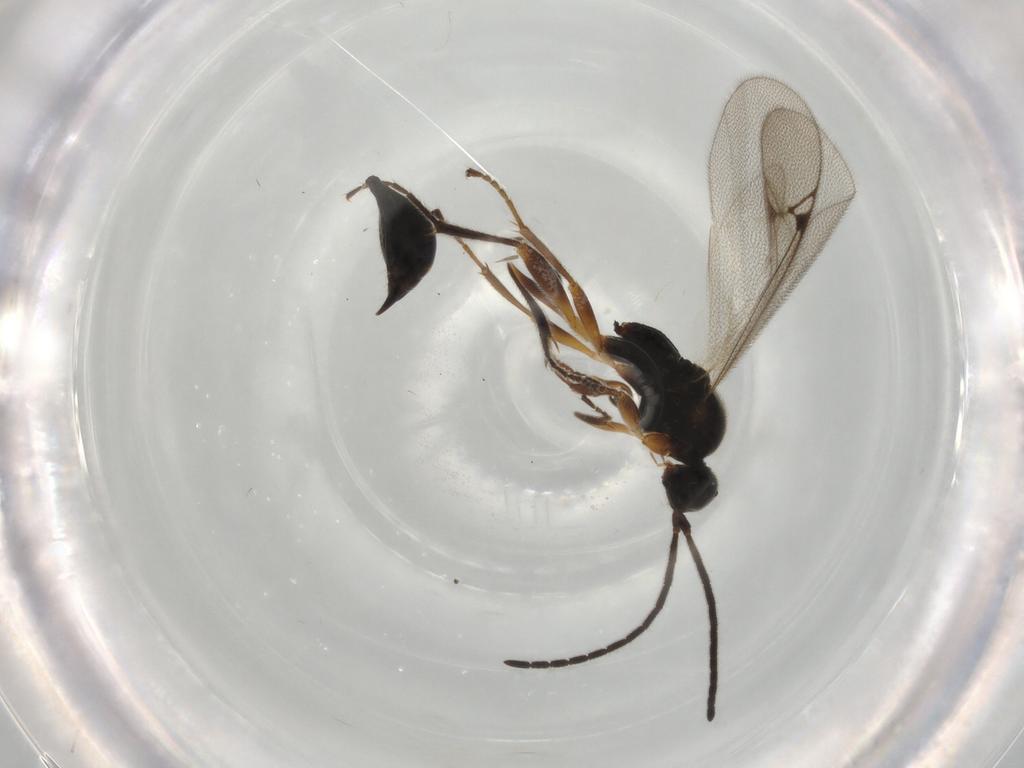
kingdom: Animalia
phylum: Arthropoda
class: Insecta
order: Hymenoptera
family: Proctotrupidae
